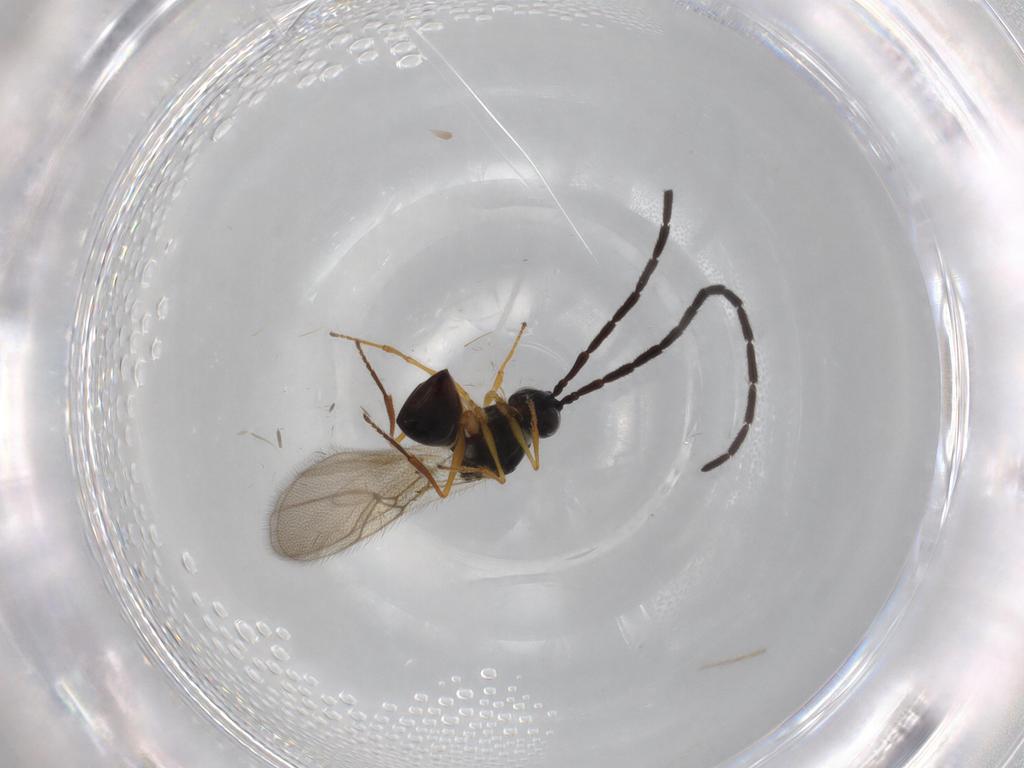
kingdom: Animalia
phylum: Arthropoda
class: Insecta
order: Hymenoptera
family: Figitidae
